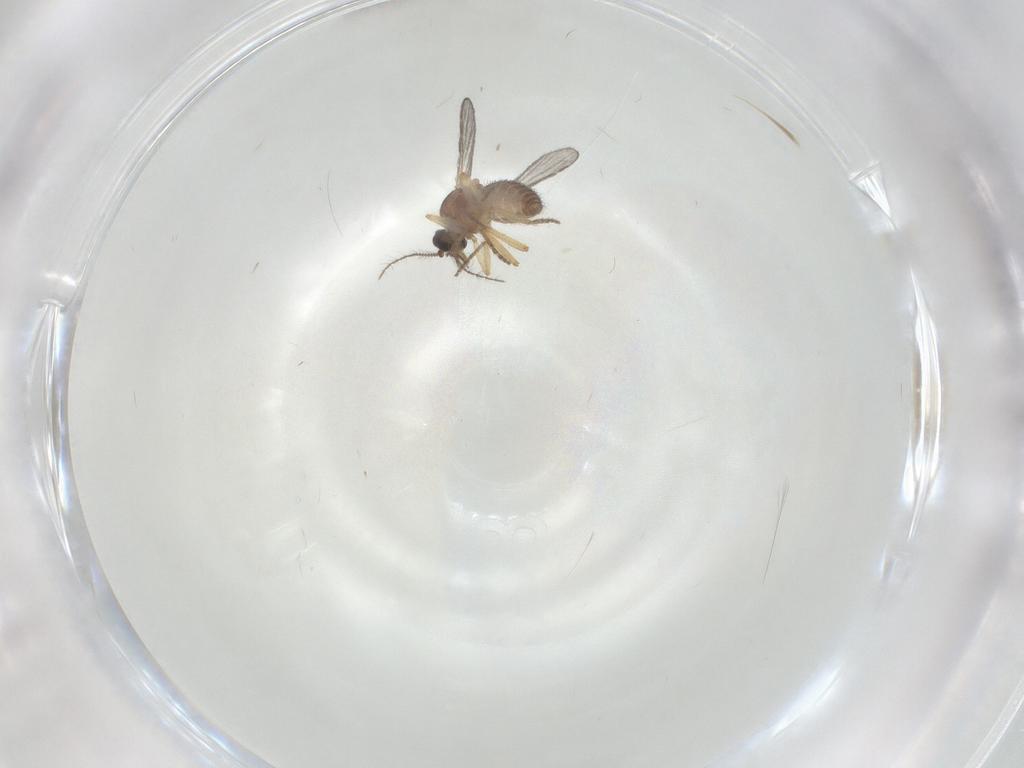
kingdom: Animalia
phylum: Arthropoda
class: Insecta
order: Diptera
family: Ceratopogonidae
